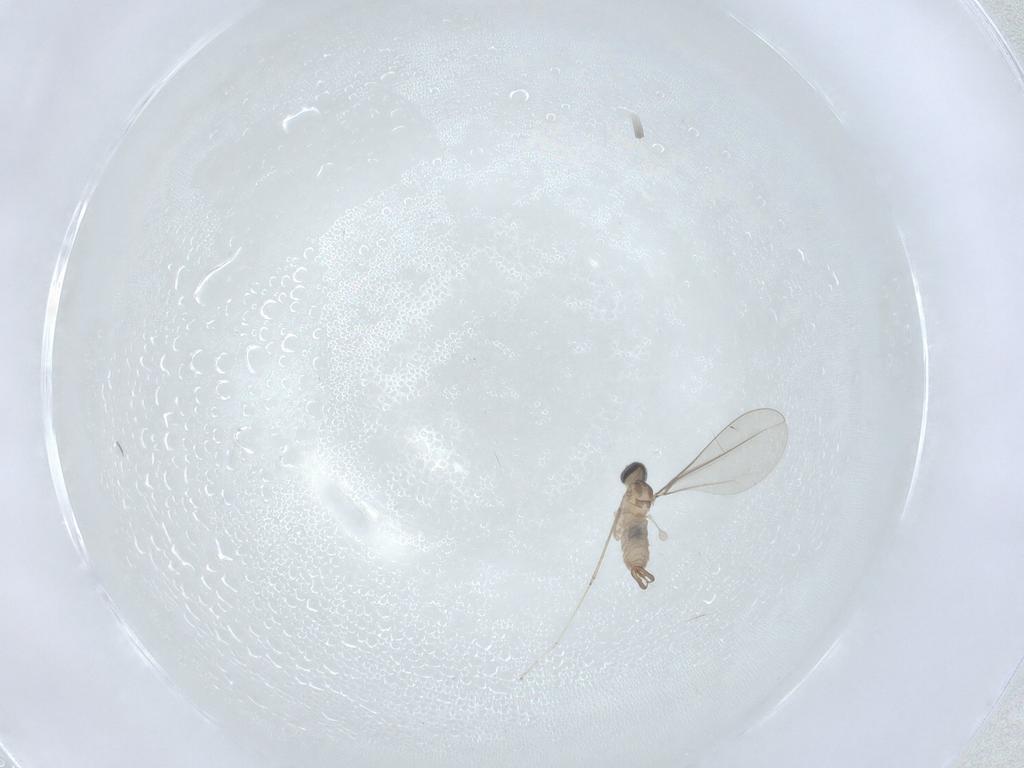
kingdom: Animalia
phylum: Arthropoda
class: Insecta
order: Diptera
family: Cecidomyiidae
